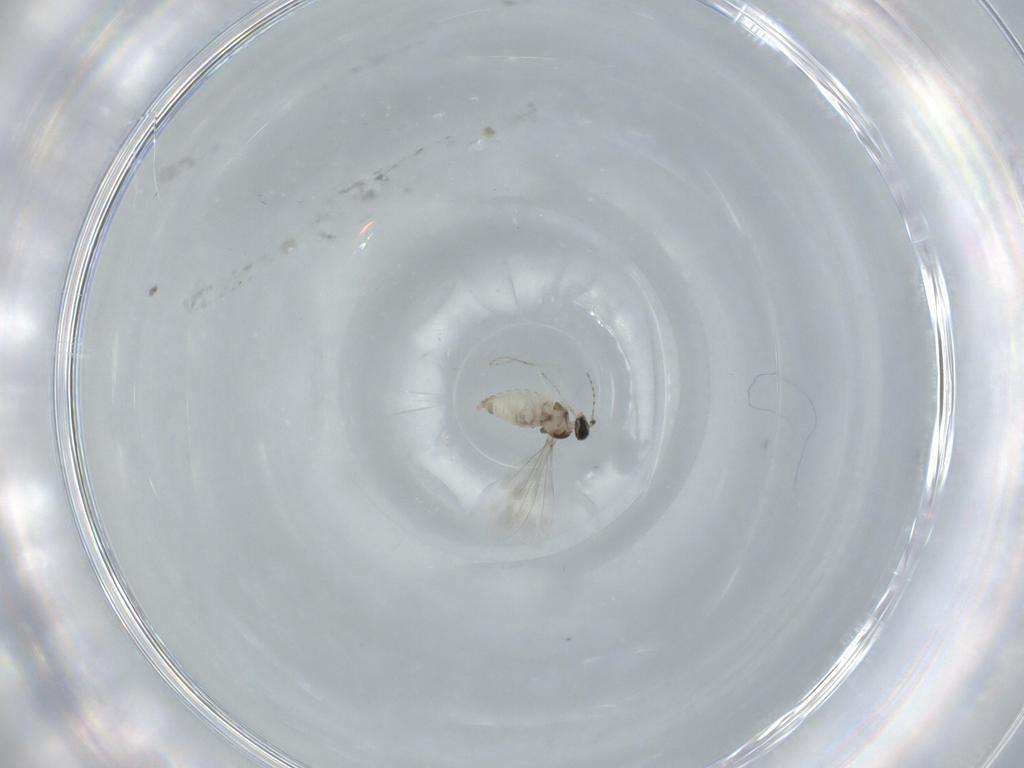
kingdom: Animalia
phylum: Arthropoda
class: Insecta
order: Diptera
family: Cecidomyiidae
